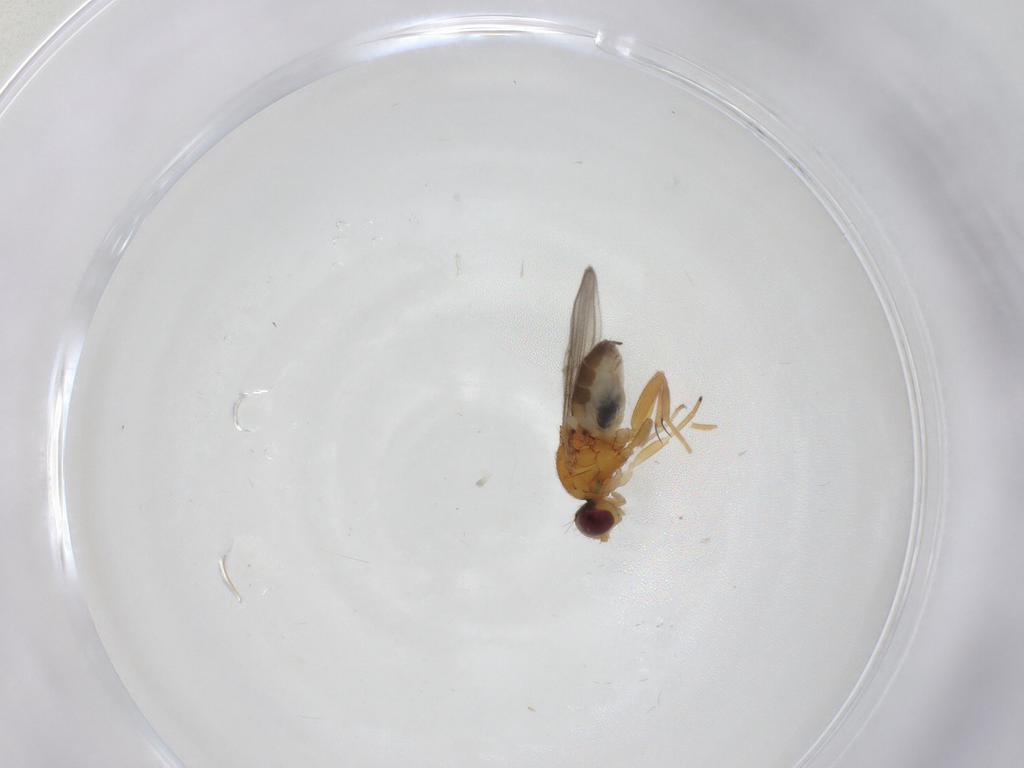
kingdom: Animalia
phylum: Arthropoda
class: Insecta
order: Diptera
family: Chloropidae
